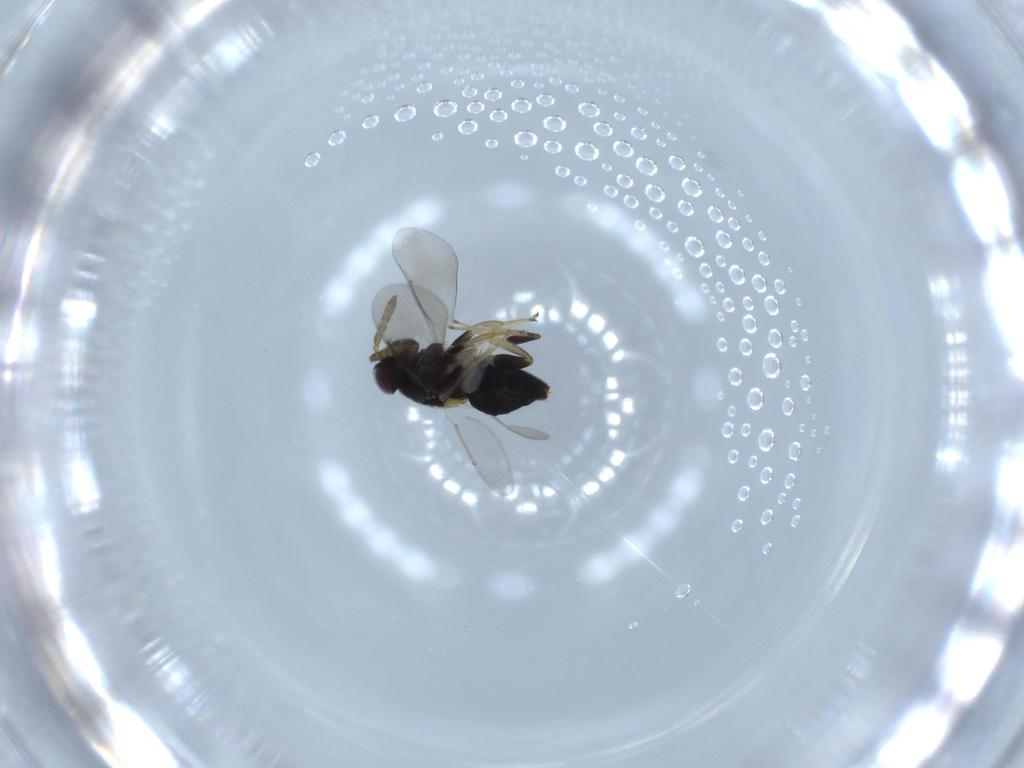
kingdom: Animalia
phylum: Arthropoda
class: Insecta
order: Hymenoptera
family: Aphelinidae
